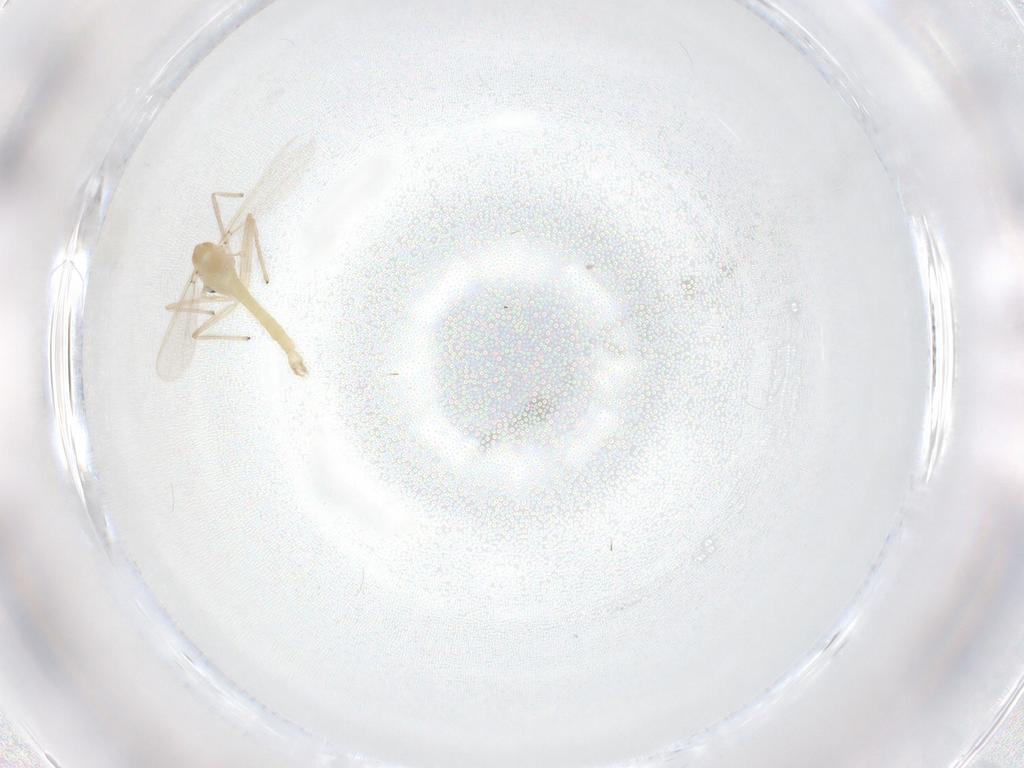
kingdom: Animalia
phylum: Arthropoda
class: Insecta
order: Diptera
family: Chironomidae
